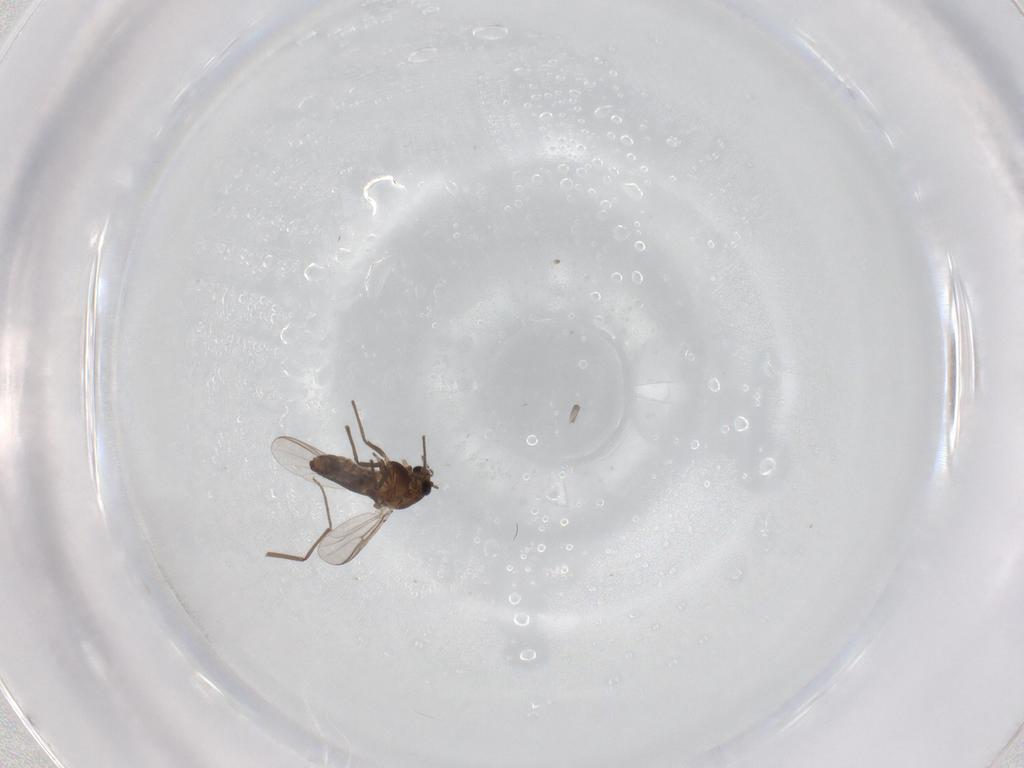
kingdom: Animalia
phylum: Arthropoda
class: Insecta
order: Diptera
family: Chironomidae
